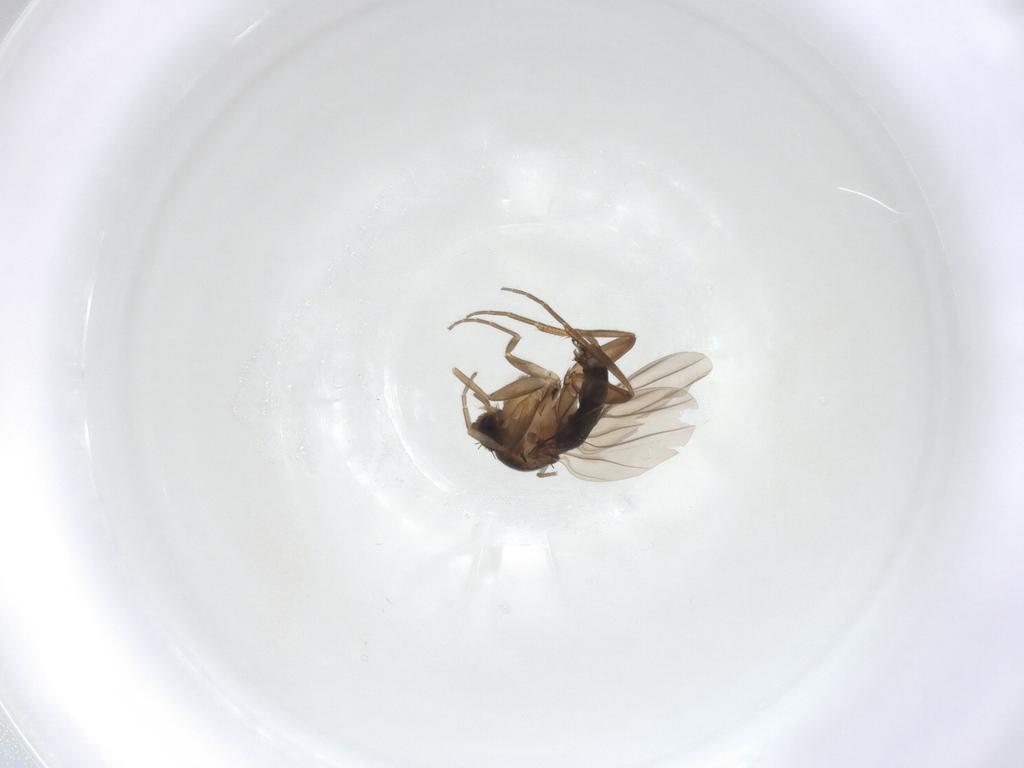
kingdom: Animalia
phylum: Arthropoda
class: Insecta
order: Diptera
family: Phoridae
